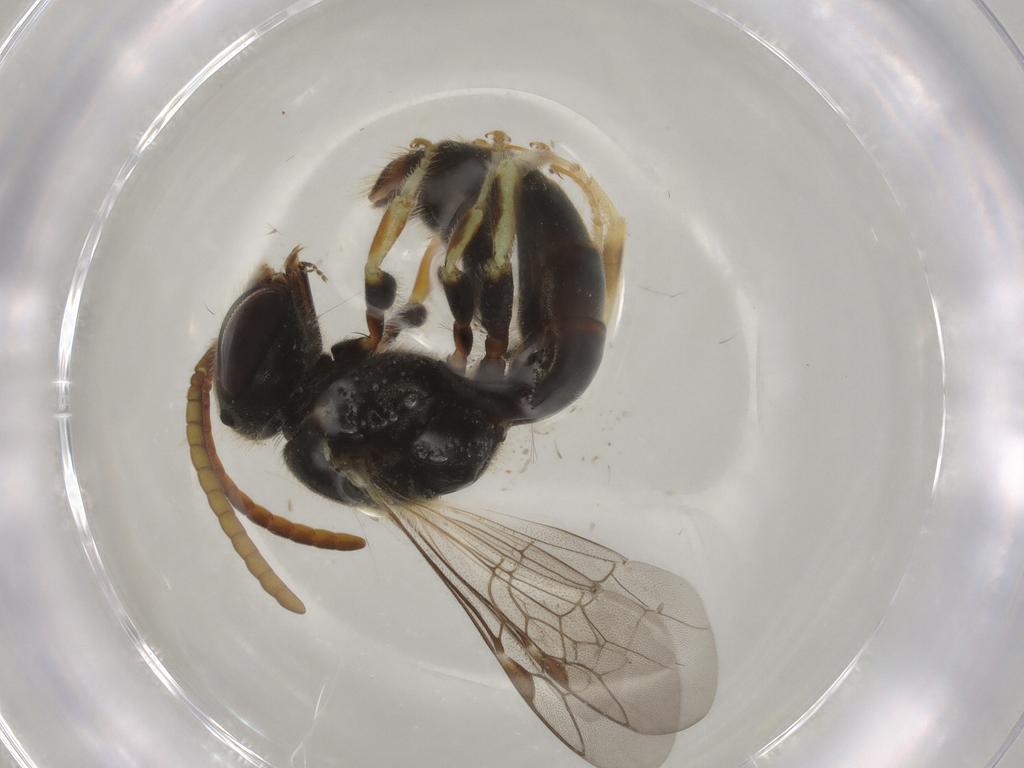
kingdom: Animalia
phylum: Arthropoda
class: Insecta
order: Hymenoptera
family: Halictidae
